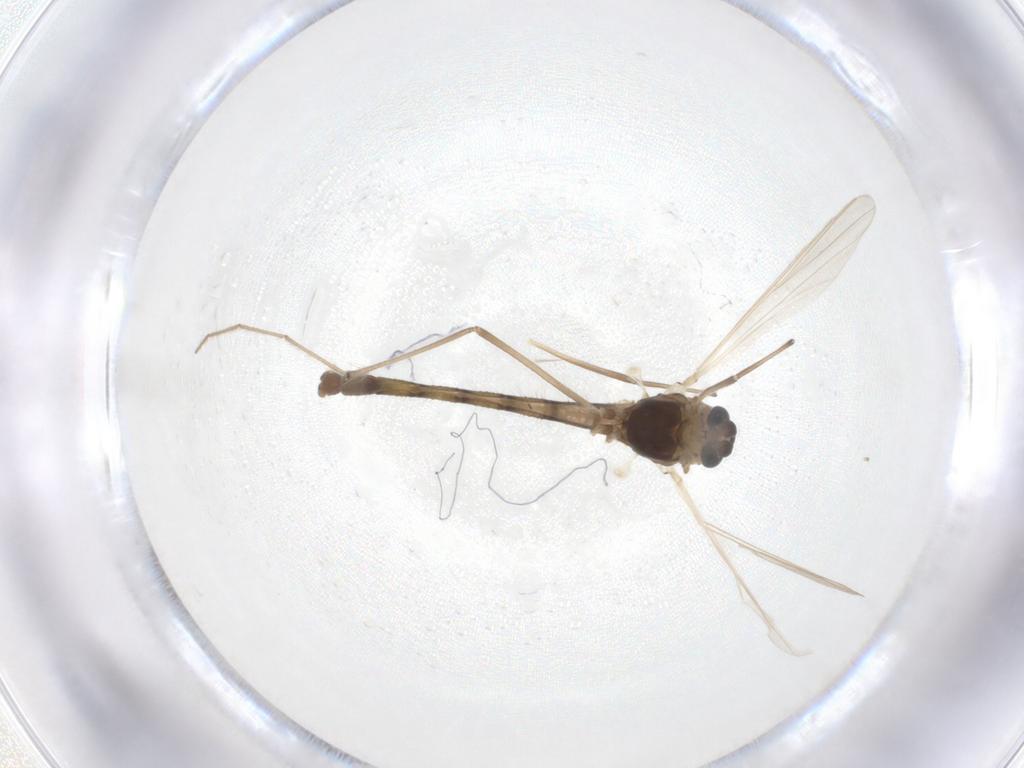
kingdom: Animalia
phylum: Arthropoda
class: Insecta
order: Diptera
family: Chironomidae
